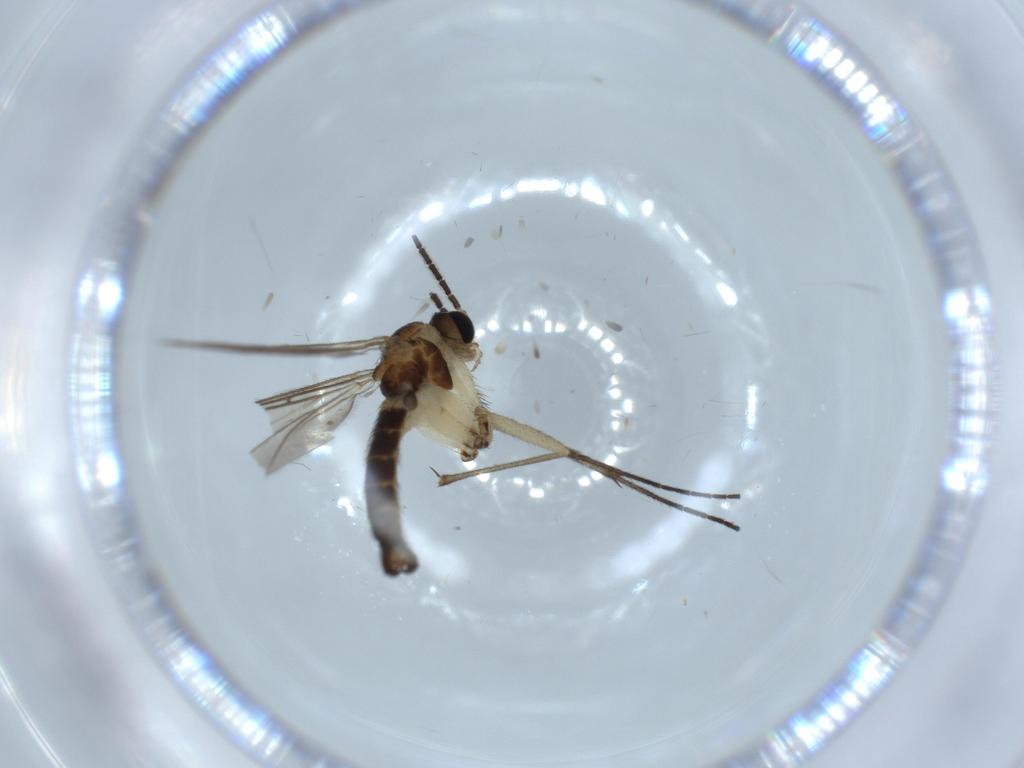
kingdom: Animalia
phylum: Arthropoda
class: Insecta
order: Diptera
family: Sciaridae
